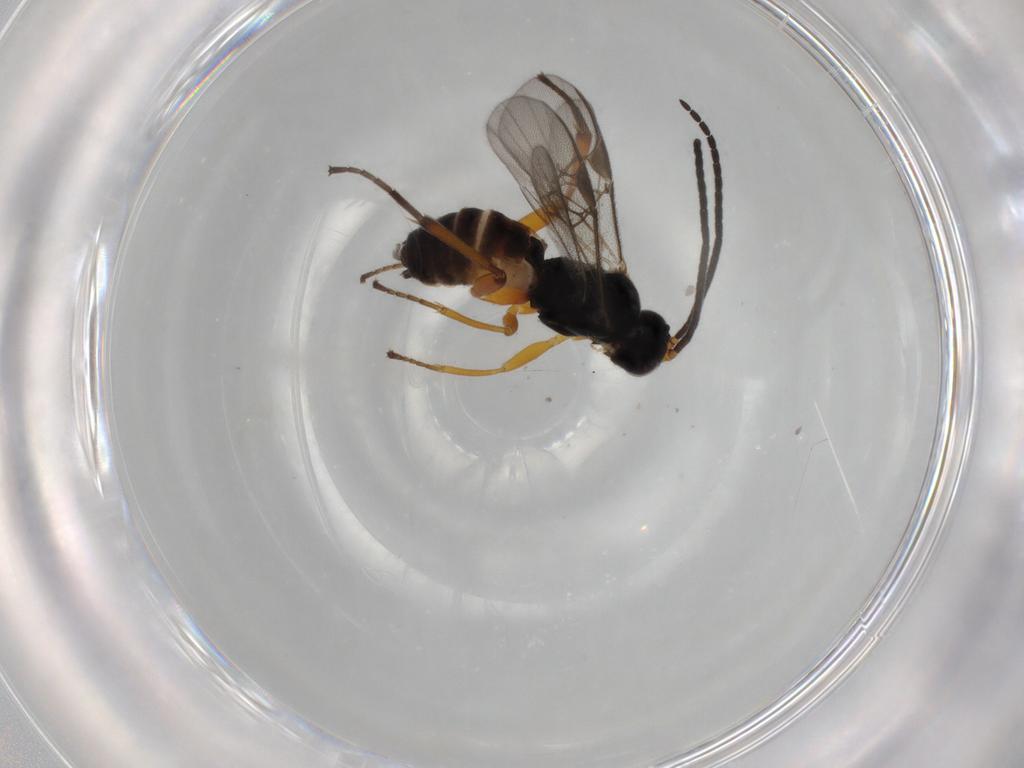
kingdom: Animalia
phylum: Arthropoda
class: Insecta
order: Hymenoptera
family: Braconidae
